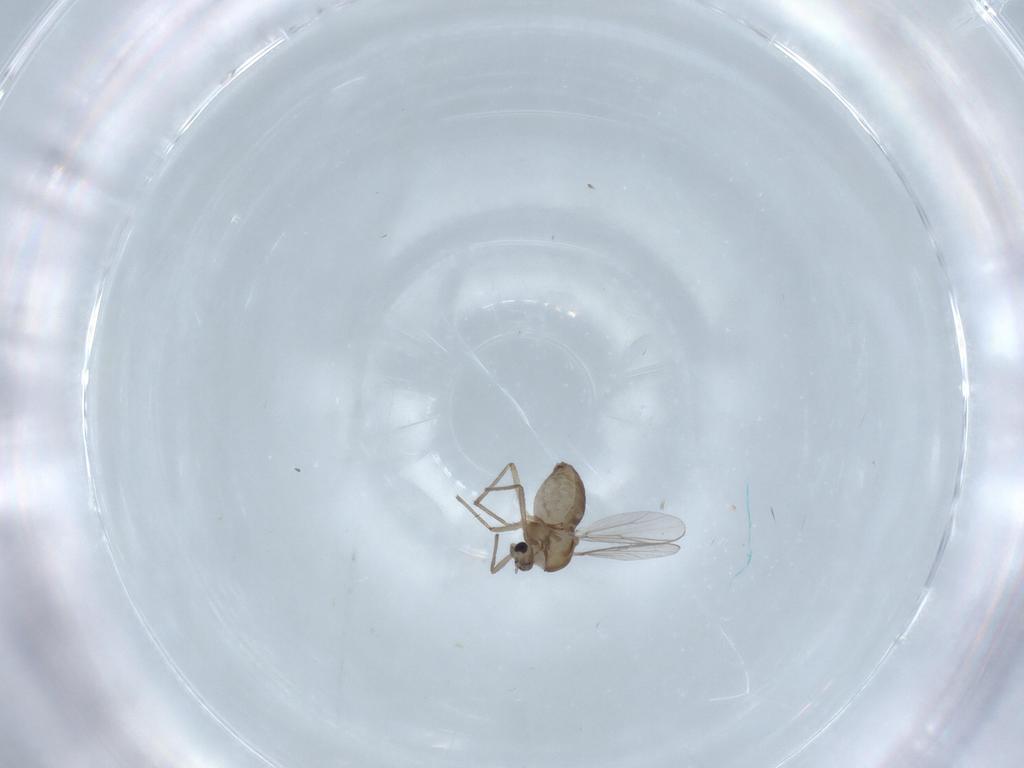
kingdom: Animalia
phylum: Arthropoda
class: Insecta
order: Diptera
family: Chironomidae
